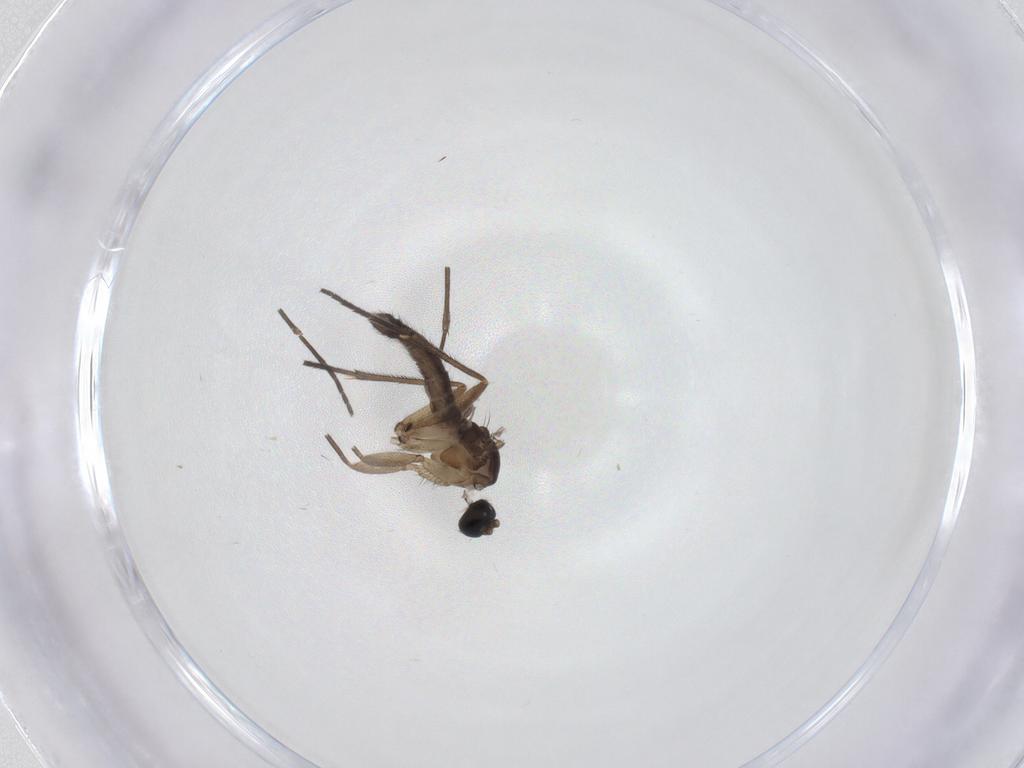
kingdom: Animalia
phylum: Arthropoda
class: Insecta
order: Diptera
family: Sciaridae
